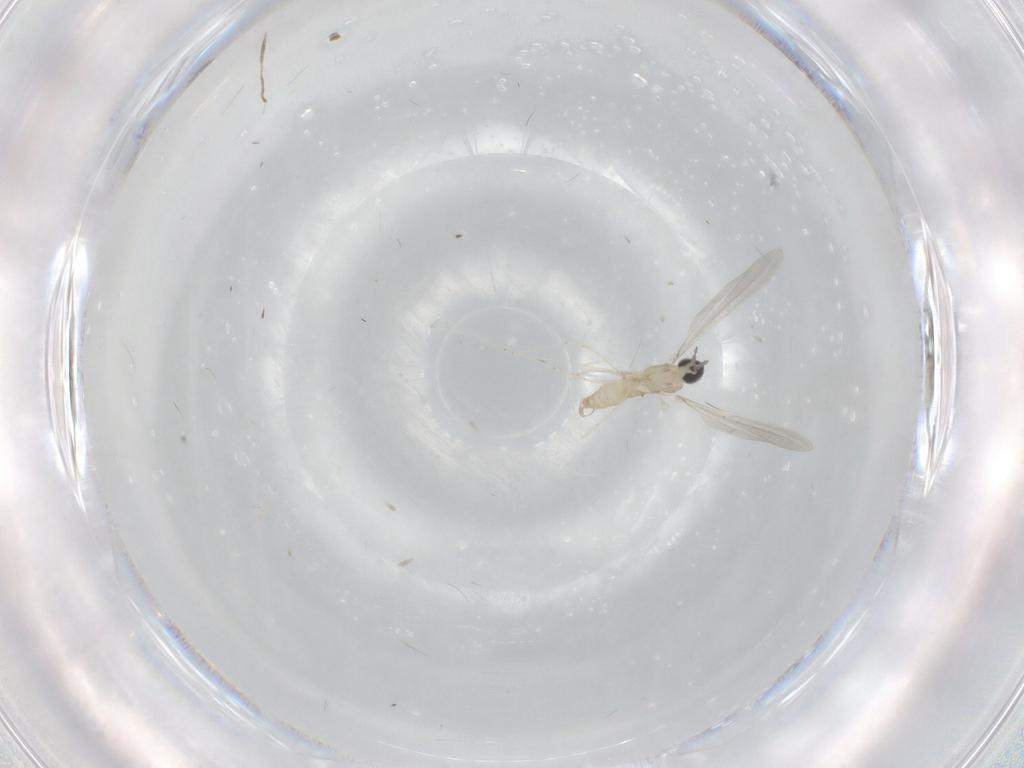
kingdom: Animalia
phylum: Arthropoda
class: Insecta
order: Diptera
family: Cecidomyiidae
